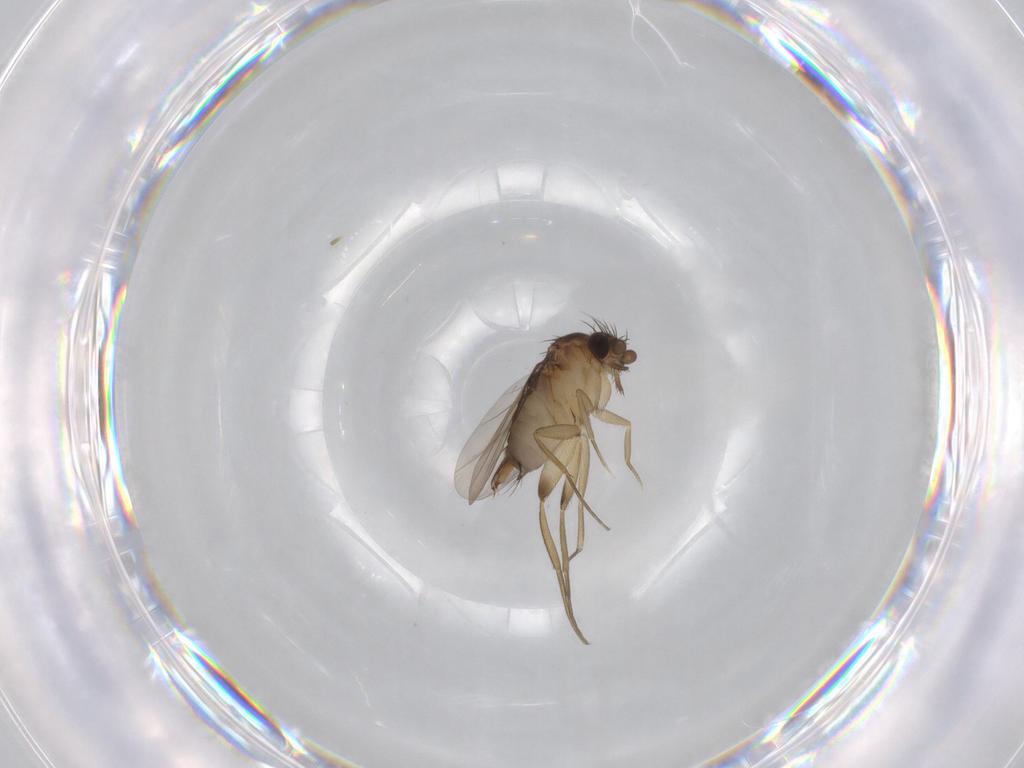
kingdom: Animalia
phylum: Arthropoda
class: Insecta
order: Diptera
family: Phoridae
